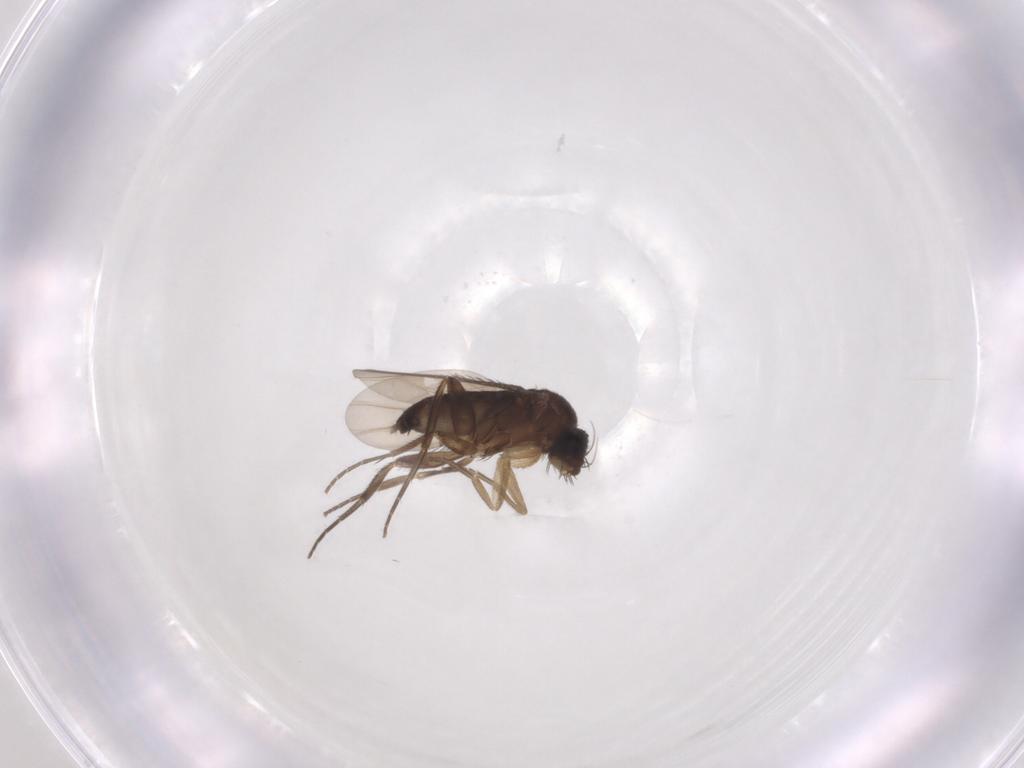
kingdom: Animalia
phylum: Arthropoda
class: Insecta
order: Diptera
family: Phoridae
